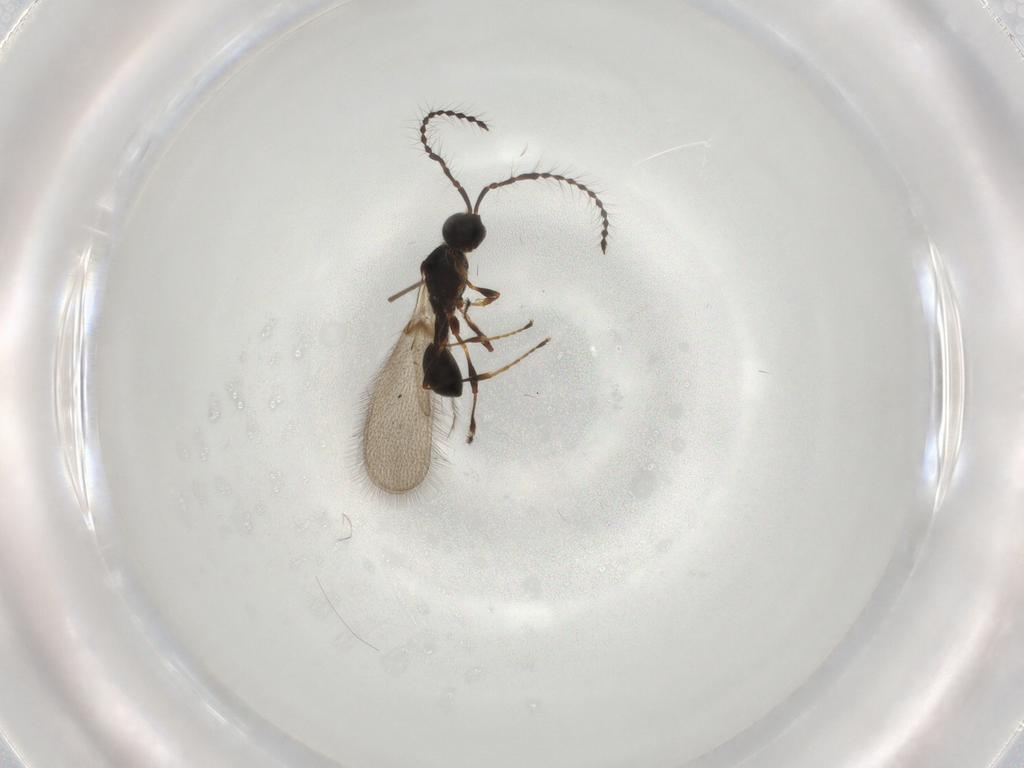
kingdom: Animalia
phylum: Arthropoda
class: Insecta
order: Hymenoptera
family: Diapriidae
